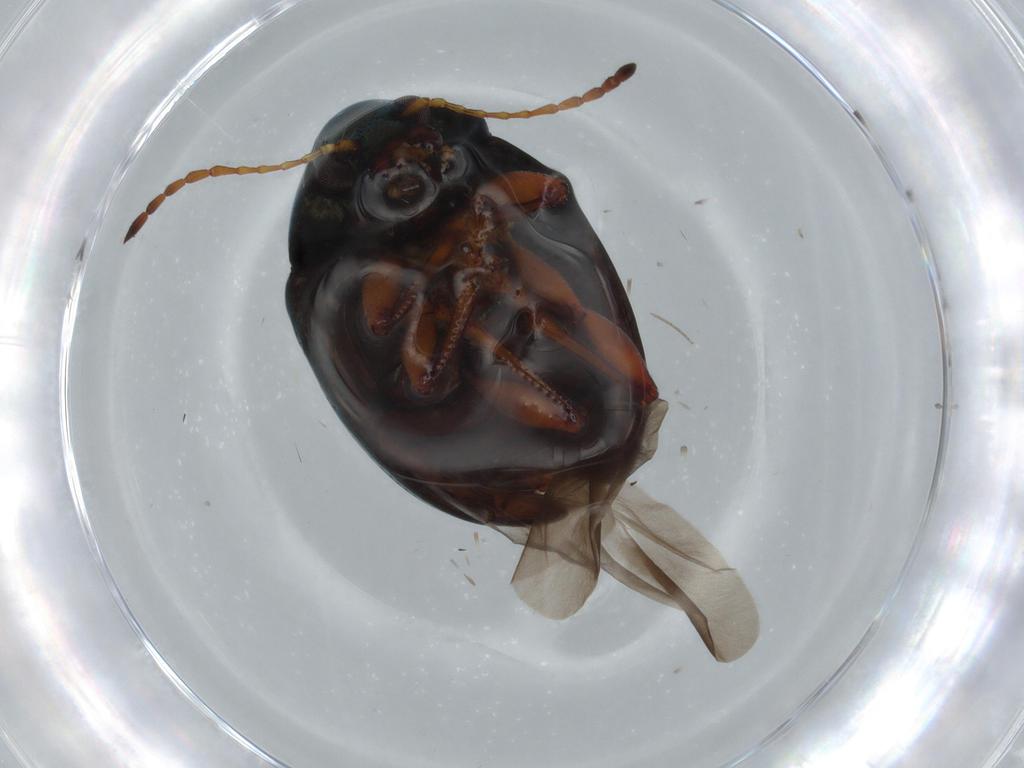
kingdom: Animalia
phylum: Arthropoda
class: Insecta
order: Coleoptera
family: Chrysomelidae
